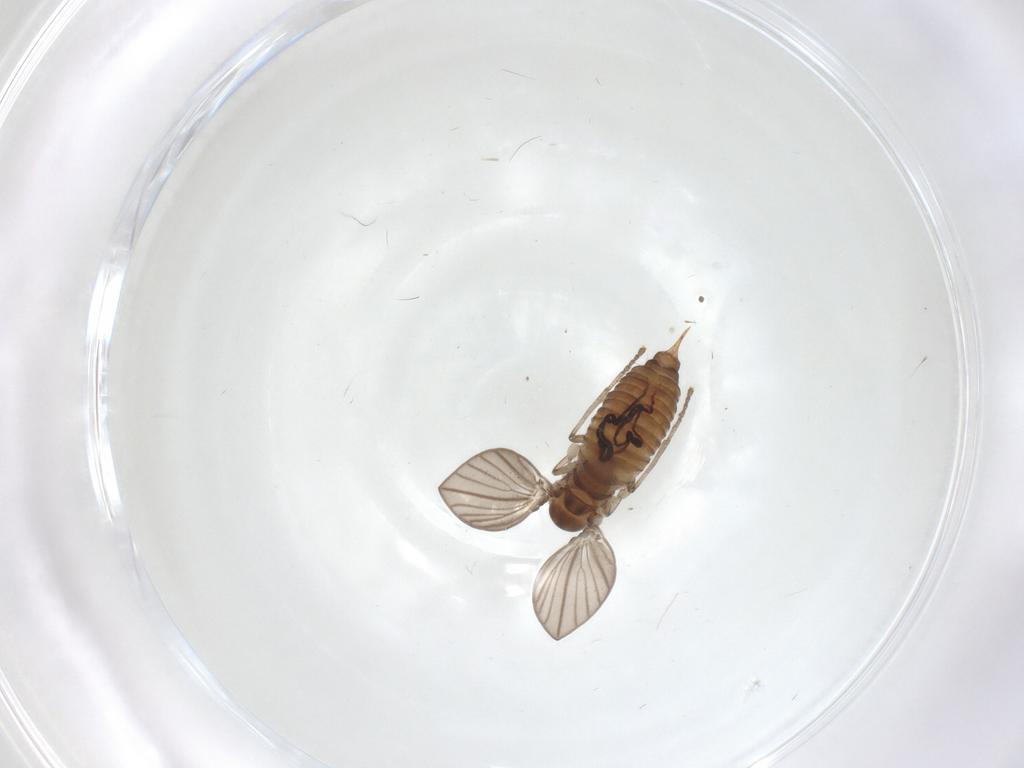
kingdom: Animalia
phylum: Arthropoda
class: Insecta
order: Diptera
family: Psychodidae
